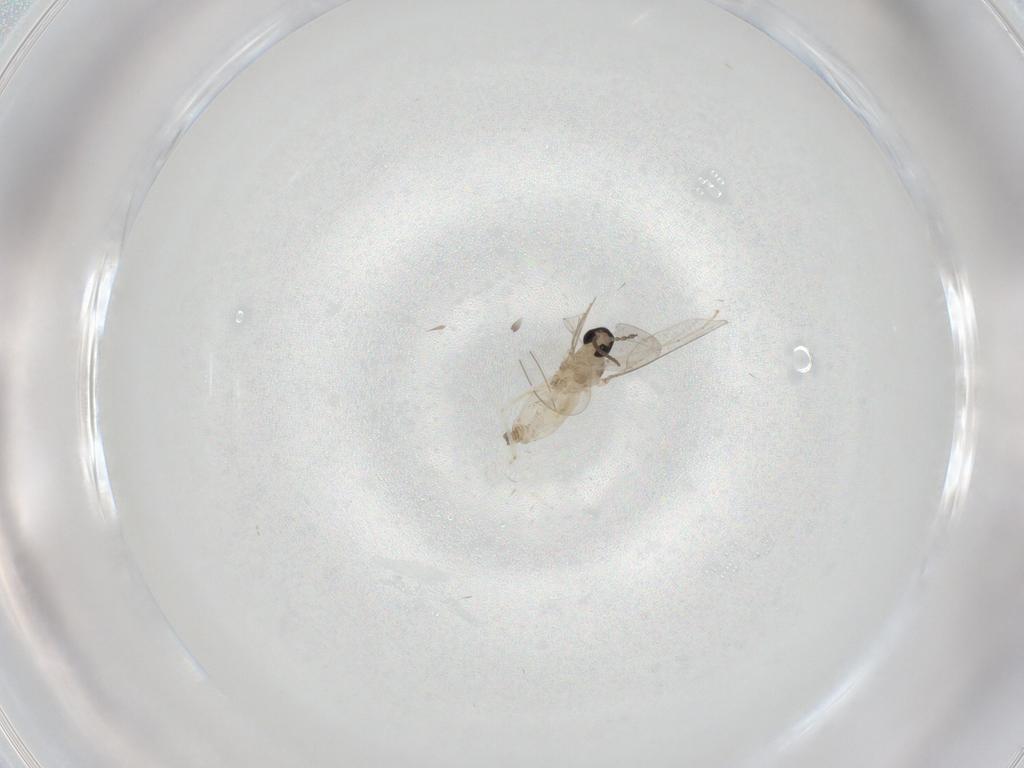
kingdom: Animalia
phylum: Arthropoda
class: Insecta
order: Diptera
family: Cecidomyiidae
